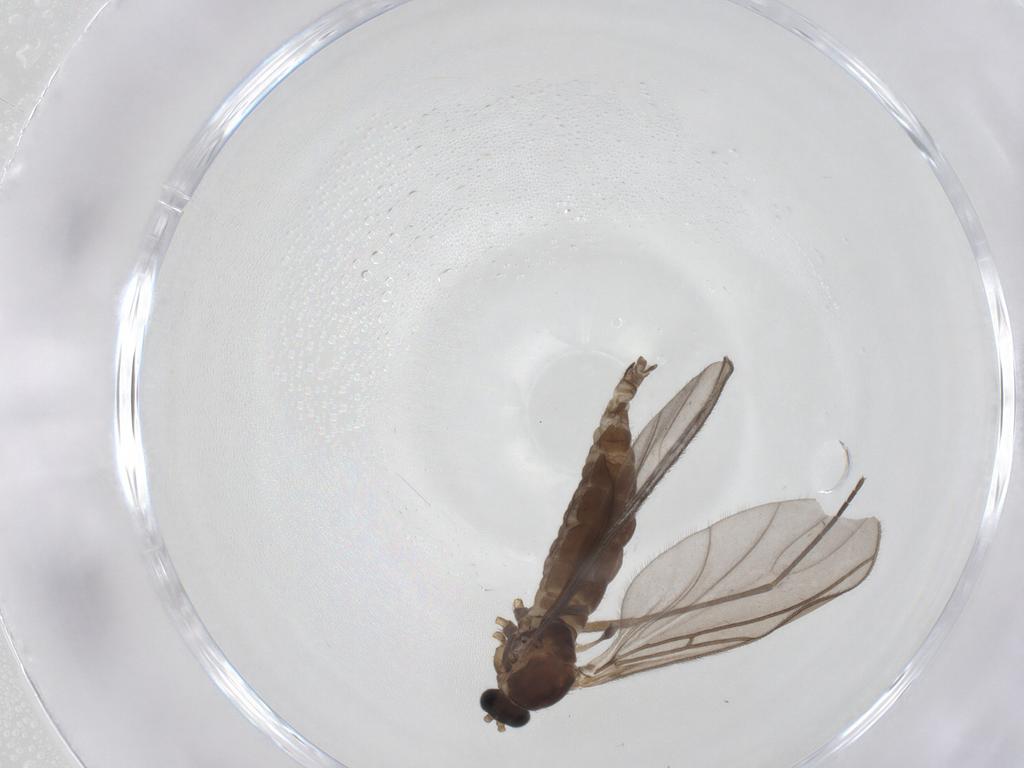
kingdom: Animalia
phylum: Arthropoda
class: Insecta
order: Diptera
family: Sciaridae
